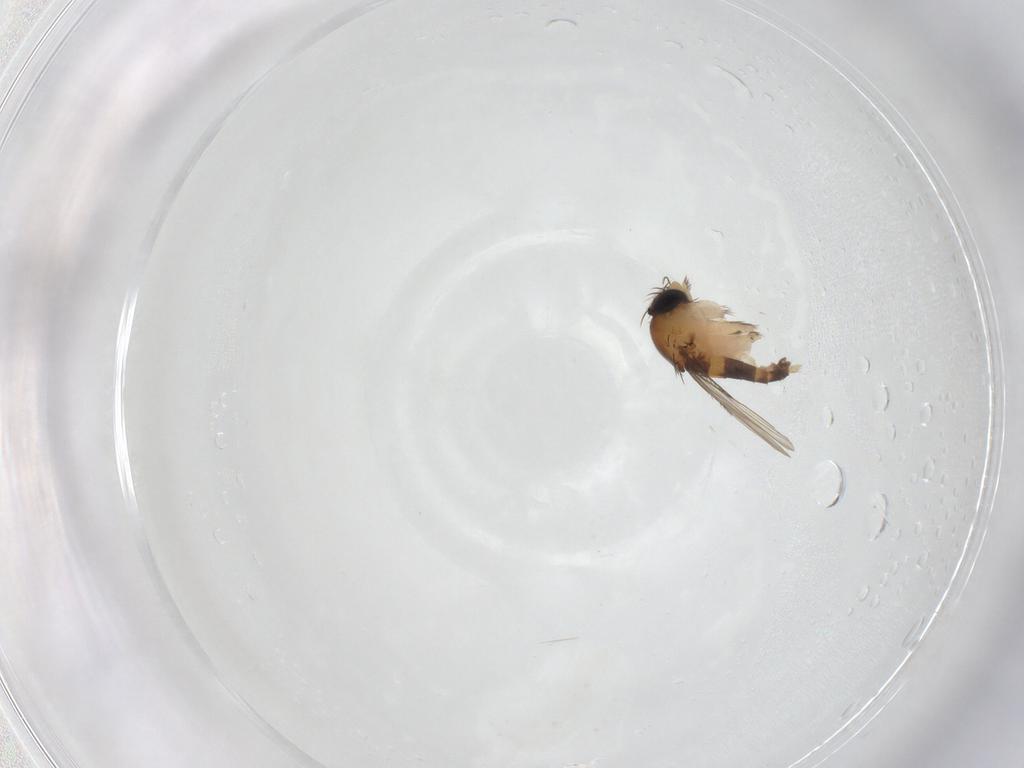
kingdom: Animalia
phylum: Arthropoda
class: Insecta
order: Diptera
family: Phoridae
